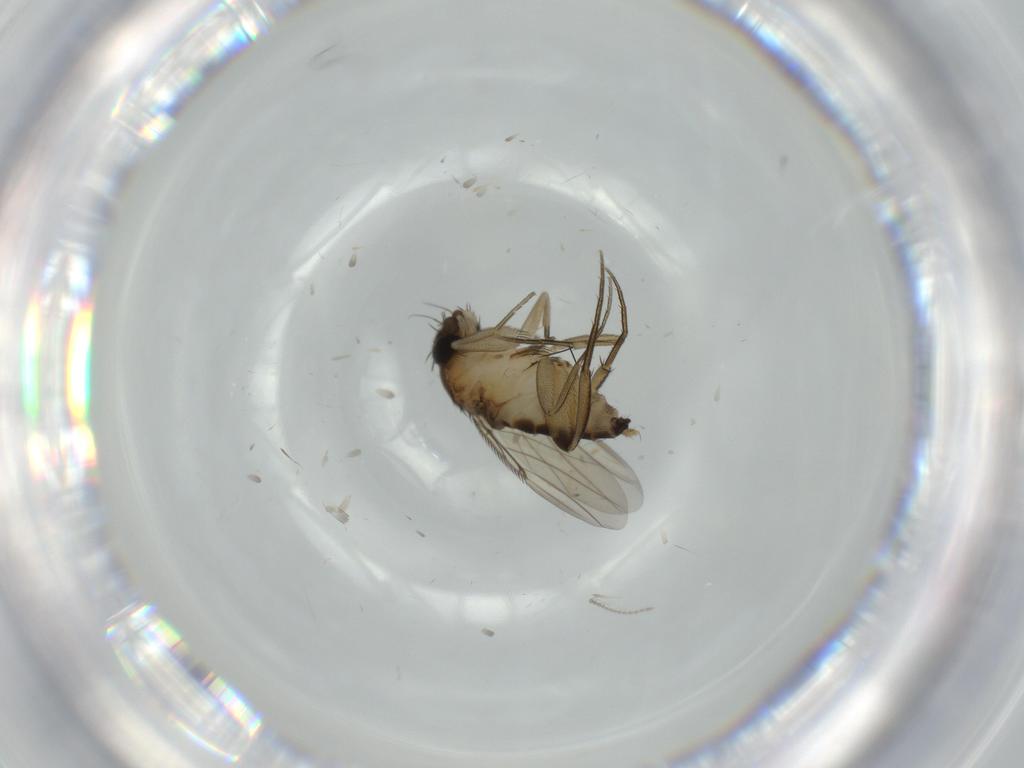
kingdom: Animalia
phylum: Arthropoda
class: Insecta
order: Diptera
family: Phoridae
